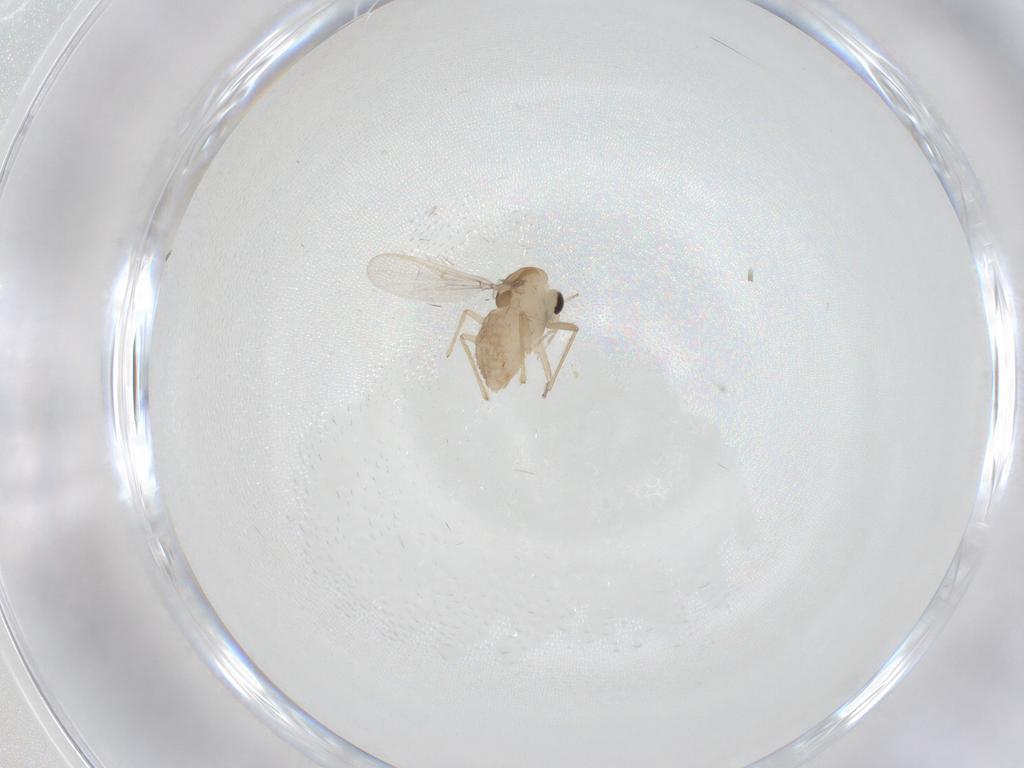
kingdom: Animalia
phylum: Arthropoda
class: Insecta
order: Diptera
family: Chironomidae
